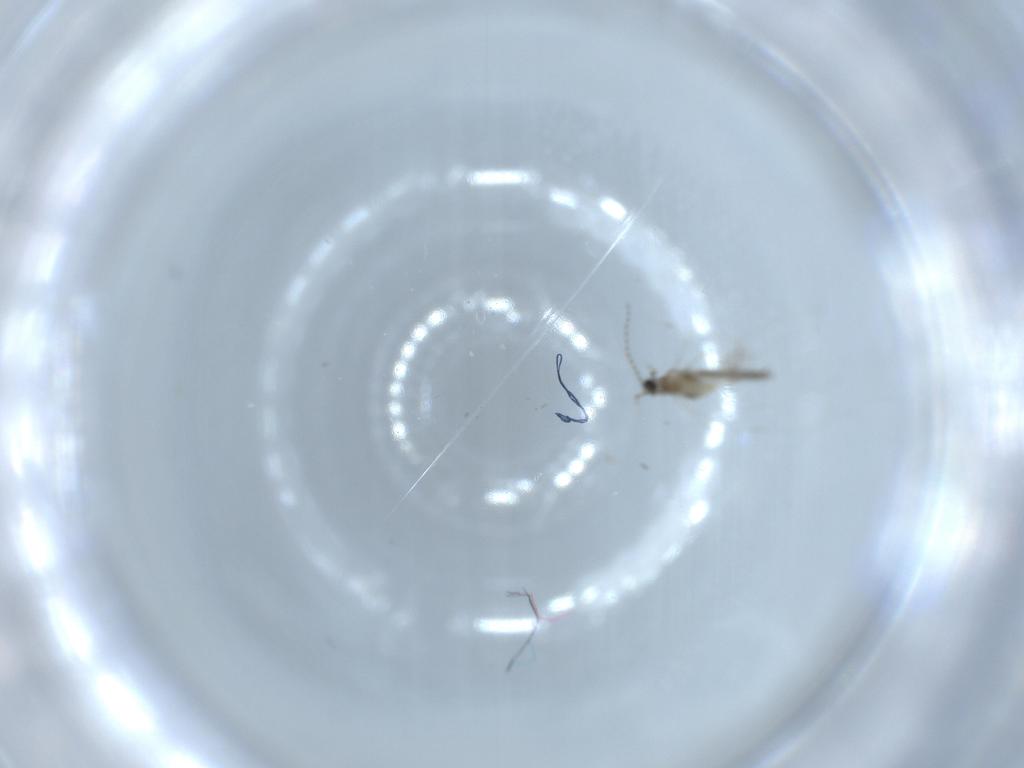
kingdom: Animalia
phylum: Arthropoda
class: Insecta
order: Diptera
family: Cecidomyiidae
